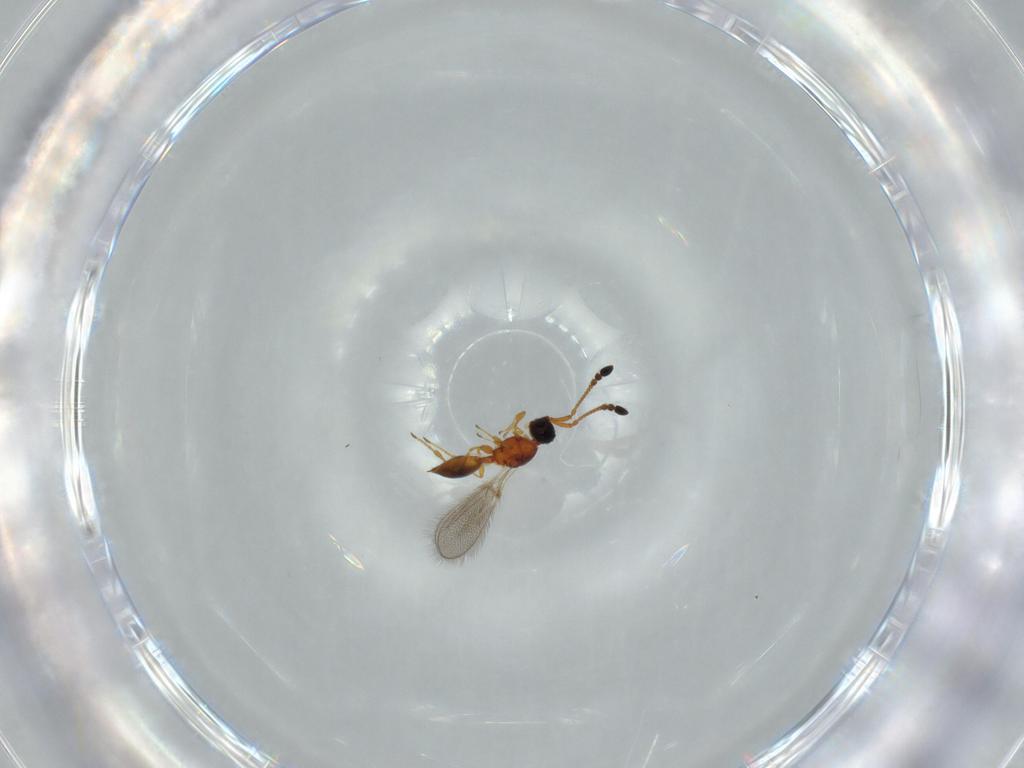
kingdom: Animalia
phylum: Arthropoda
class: Insecta
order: Hymenoptera
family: Diapriidae
